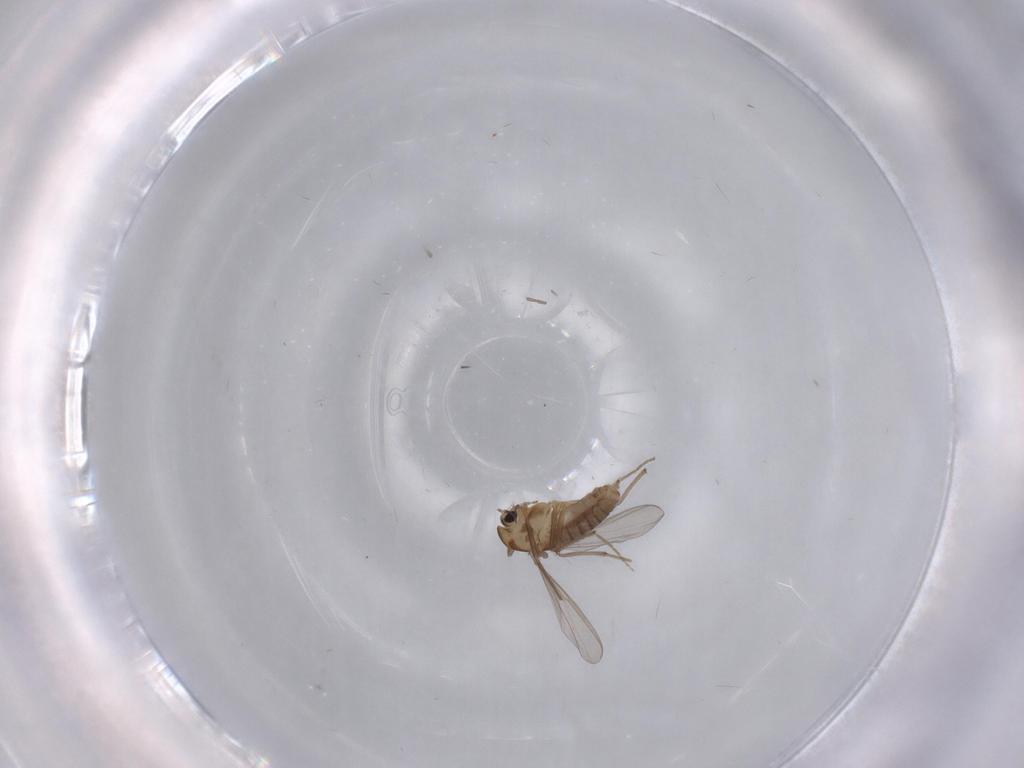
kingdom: Animalia
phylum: Arthropoda
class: Insecta
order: Diptera
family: Chironomidae
